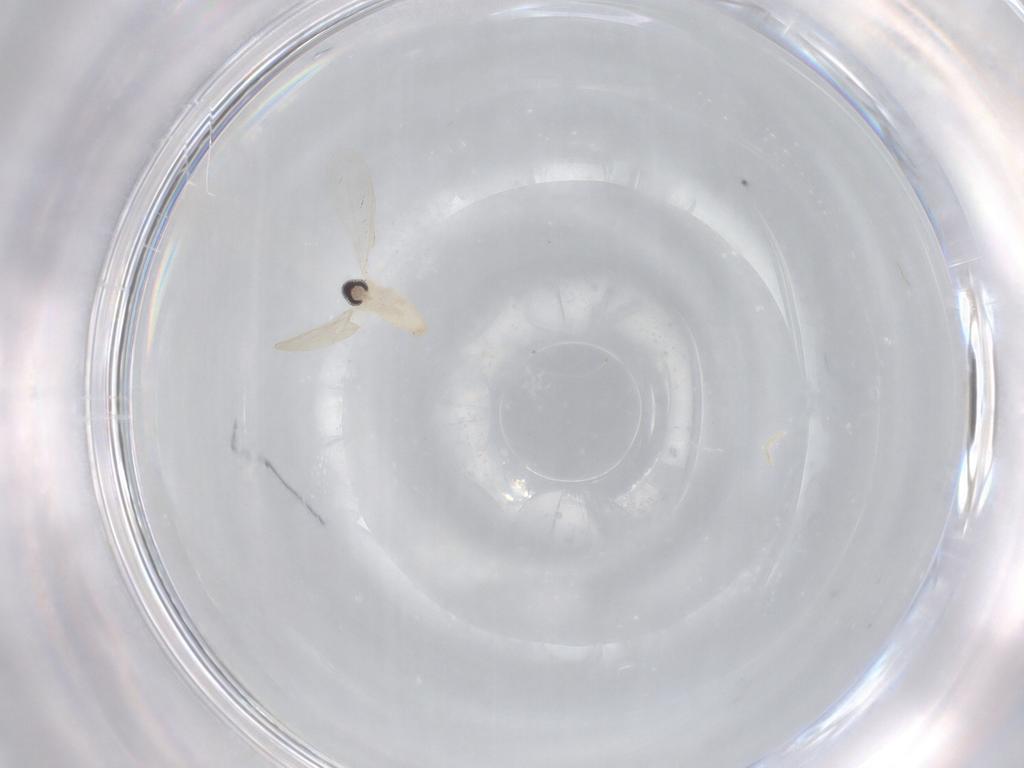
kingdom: Animalia
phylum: Arthropoda
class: Insecta
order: Diptera
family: Cecidomyiidae
